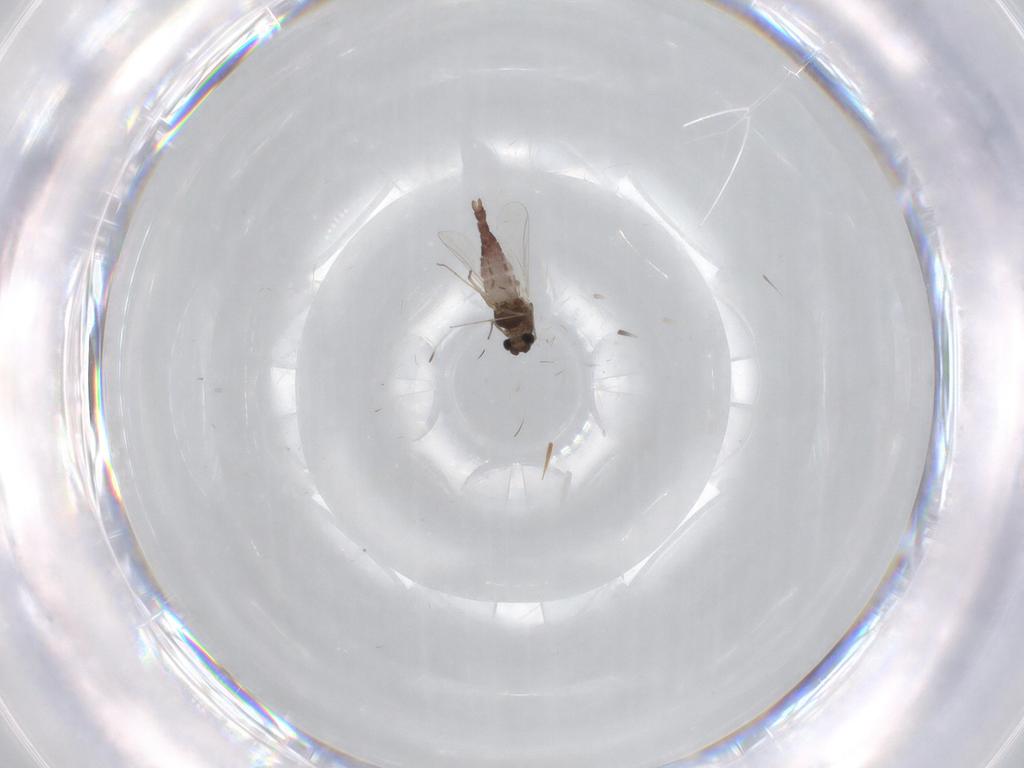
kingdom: Animalia
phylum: Arthropoda
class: Insecta
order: Diptera
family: Chironomidae
